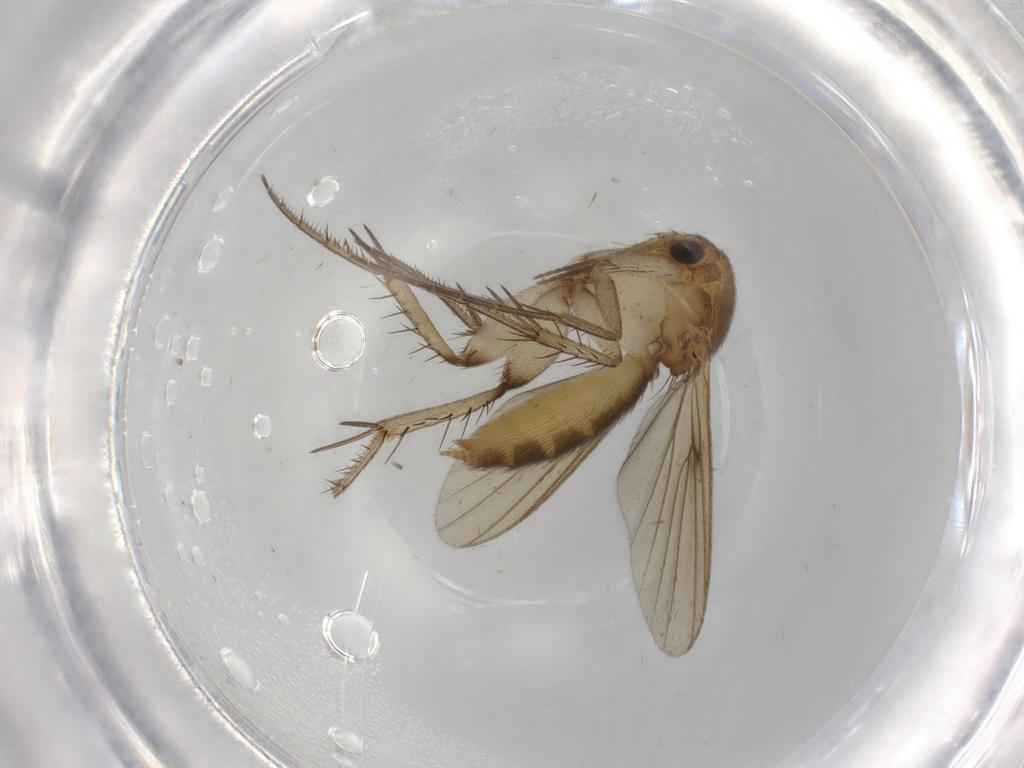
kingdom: Animalia
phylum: Arthropoda
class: Insecta
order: Diptera
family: Mycetophilidae
